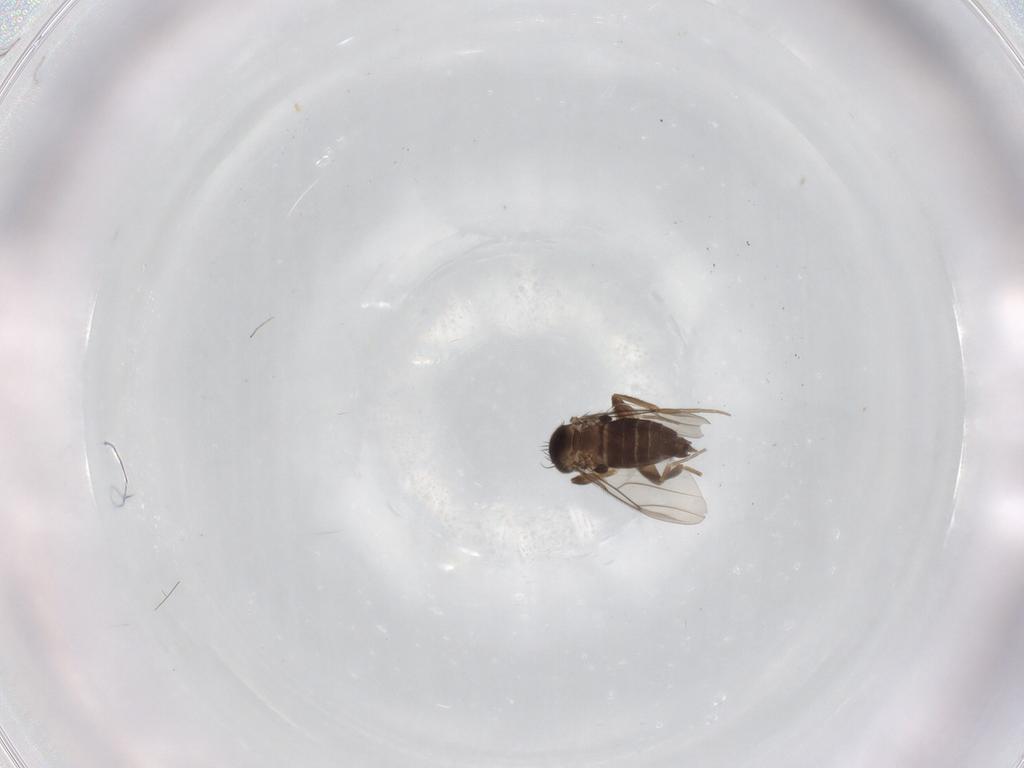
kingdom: Animalia
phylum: Arthropoda
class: Insecta
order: Diptera
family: Phoridae
